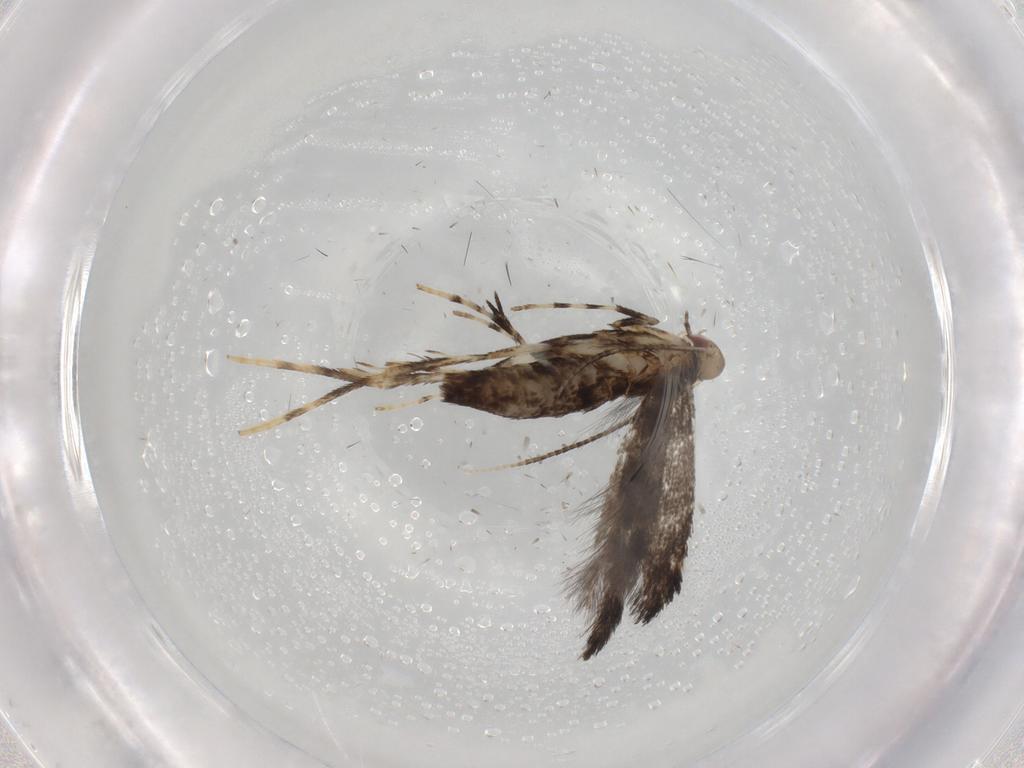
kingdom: Animalia
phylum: Arthropoda
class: Insecta
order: Lepidoptera
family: Gracillariidae
